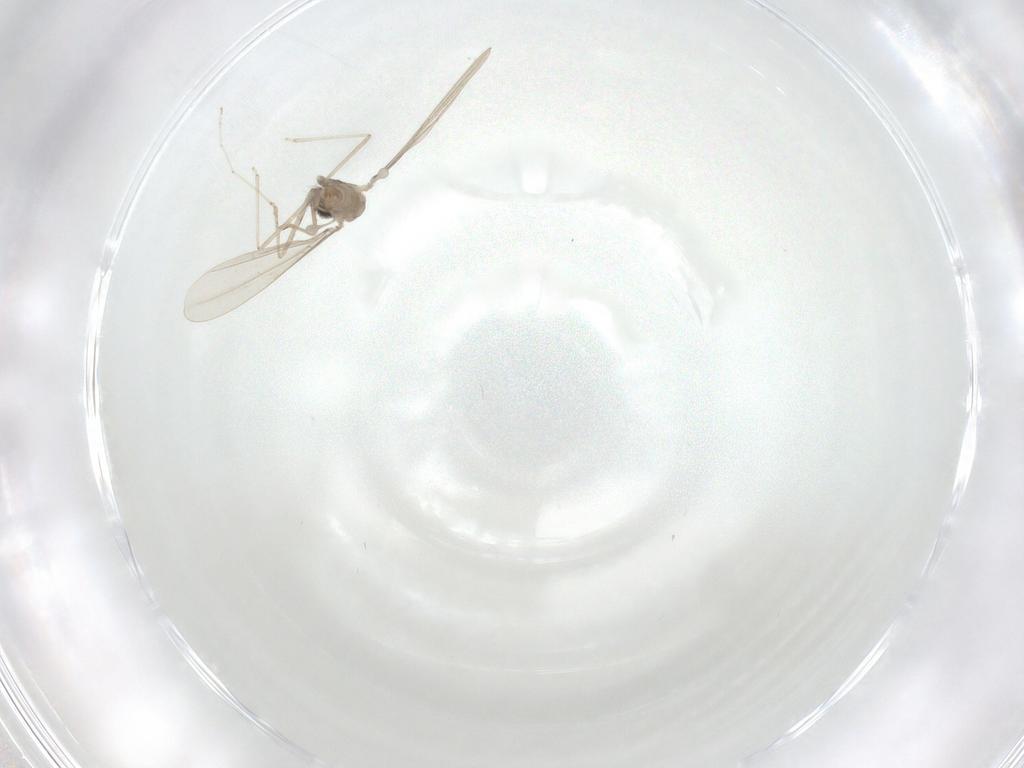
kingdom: Animalia
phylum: Arthropoda
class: Insecta
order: Diptera
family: Cecidomyiidae
